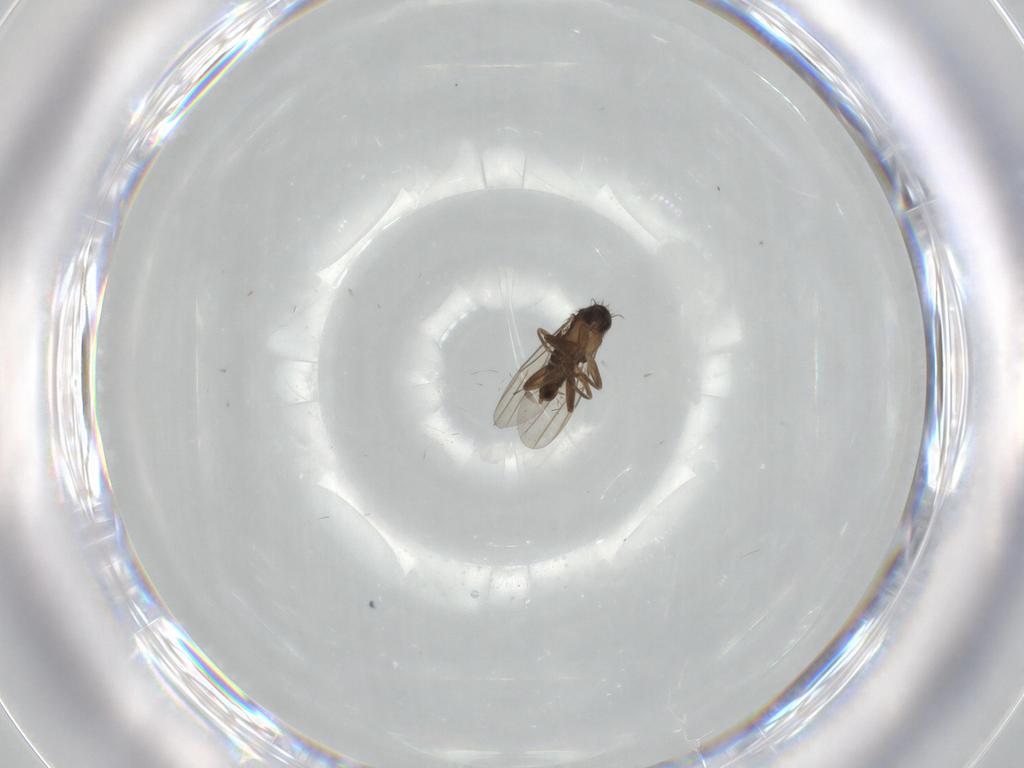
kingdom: Animalia
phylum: Arthropoda
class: Insecta
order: Diptera
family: Phoridae
